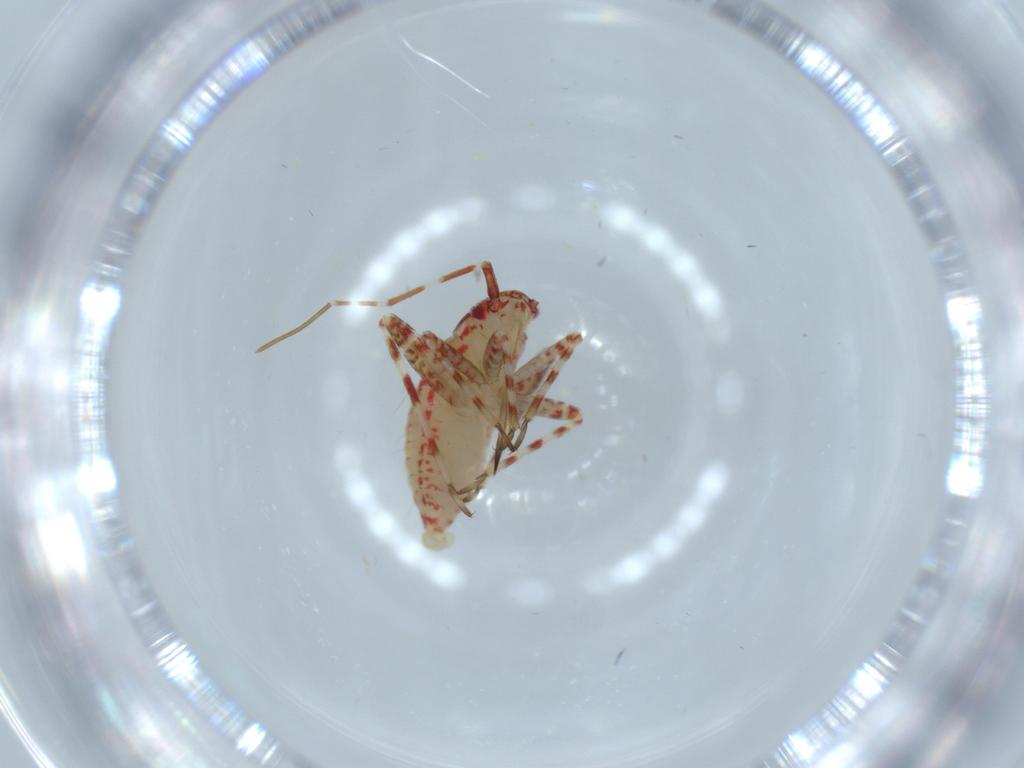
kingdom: Animalia
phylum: Arthropoda
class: Insecta
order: Hemiptera
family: Miridae
